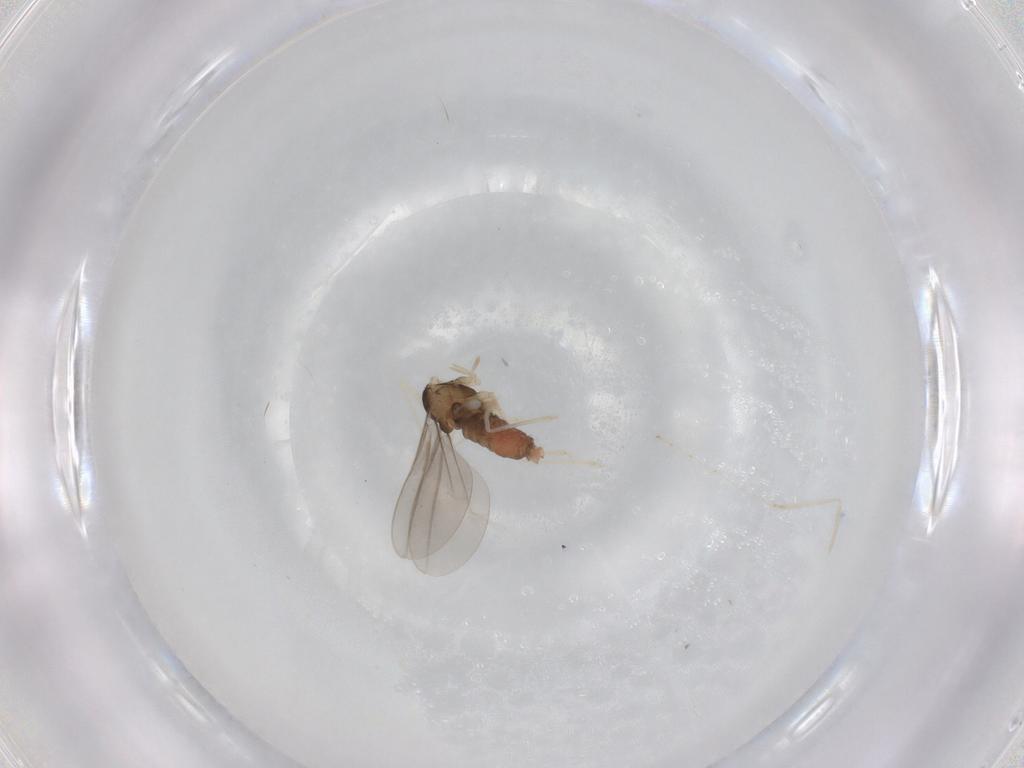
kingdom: Animalia
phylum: Arthropoda
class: Insecta
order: Diptera
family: Cecidomyiidae
